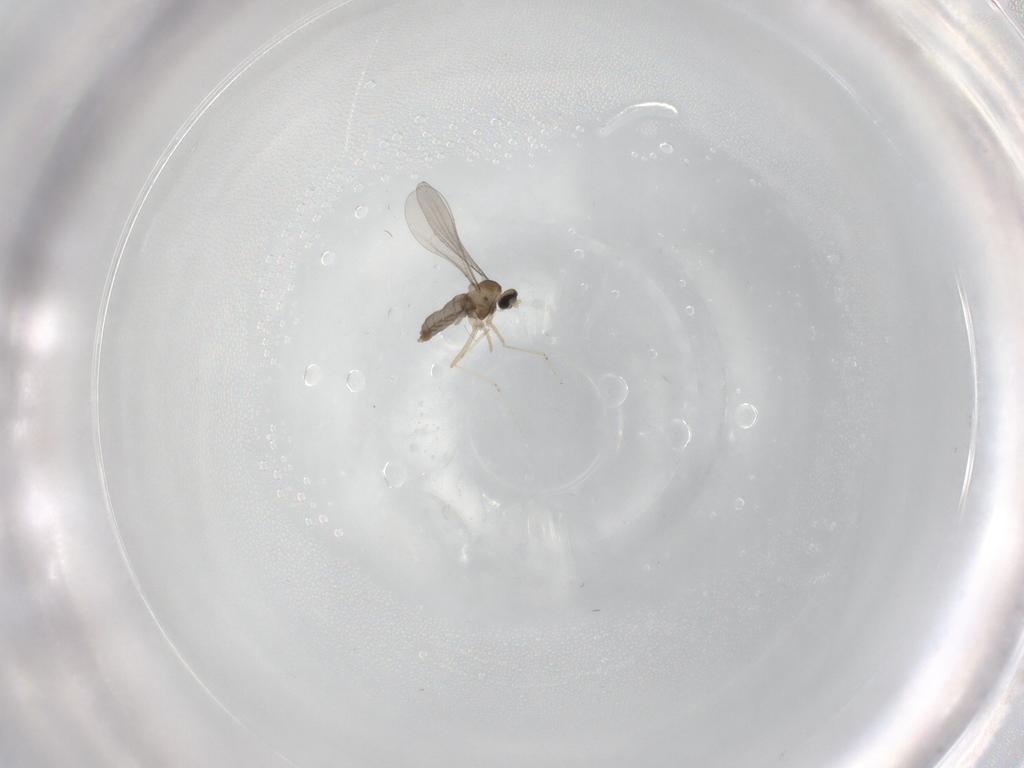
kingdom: Animalia
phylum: Arthropoda
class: Insecta
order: Diptera
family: Cecidomyiidae
